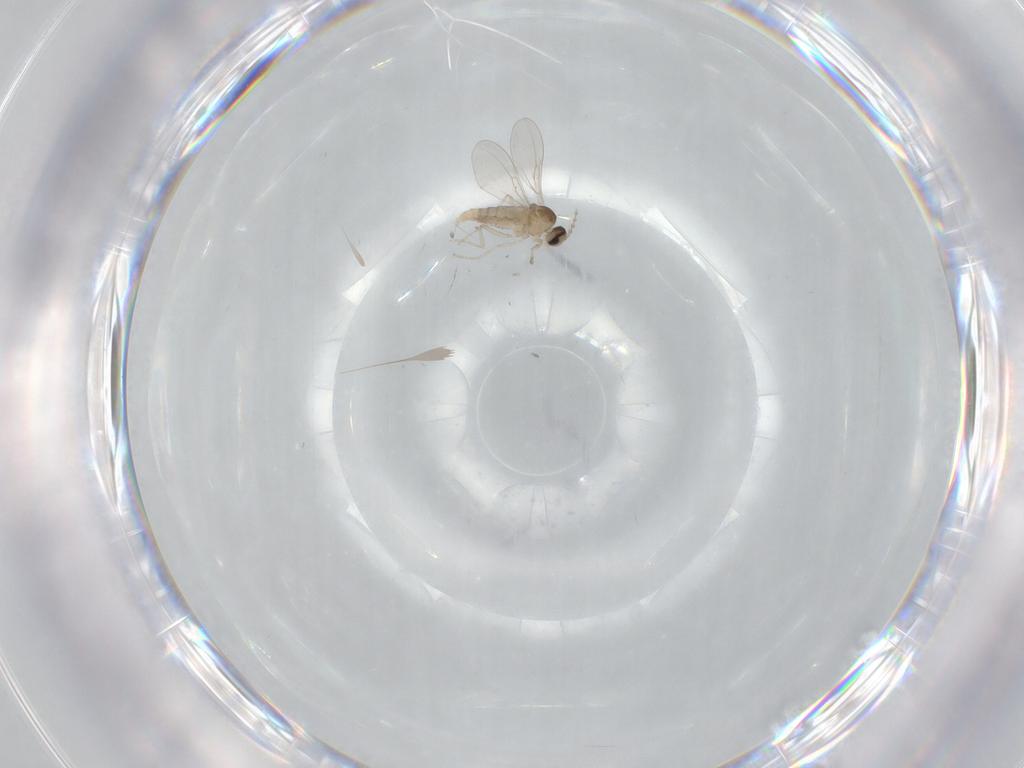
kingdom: Animalia
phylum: Arthropoda
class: Insecta
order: Diptera
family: Cecidomyiidae
